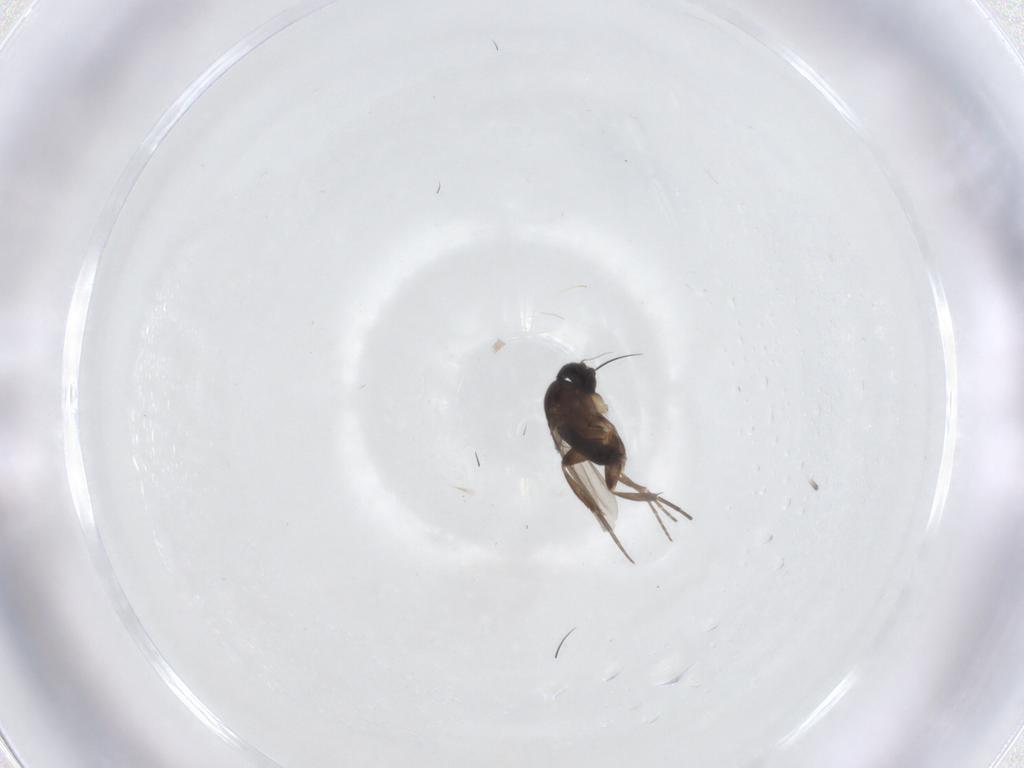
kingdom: Animalia
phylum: Arthropoda
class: Insecta
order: Diptera
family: Phoridae
